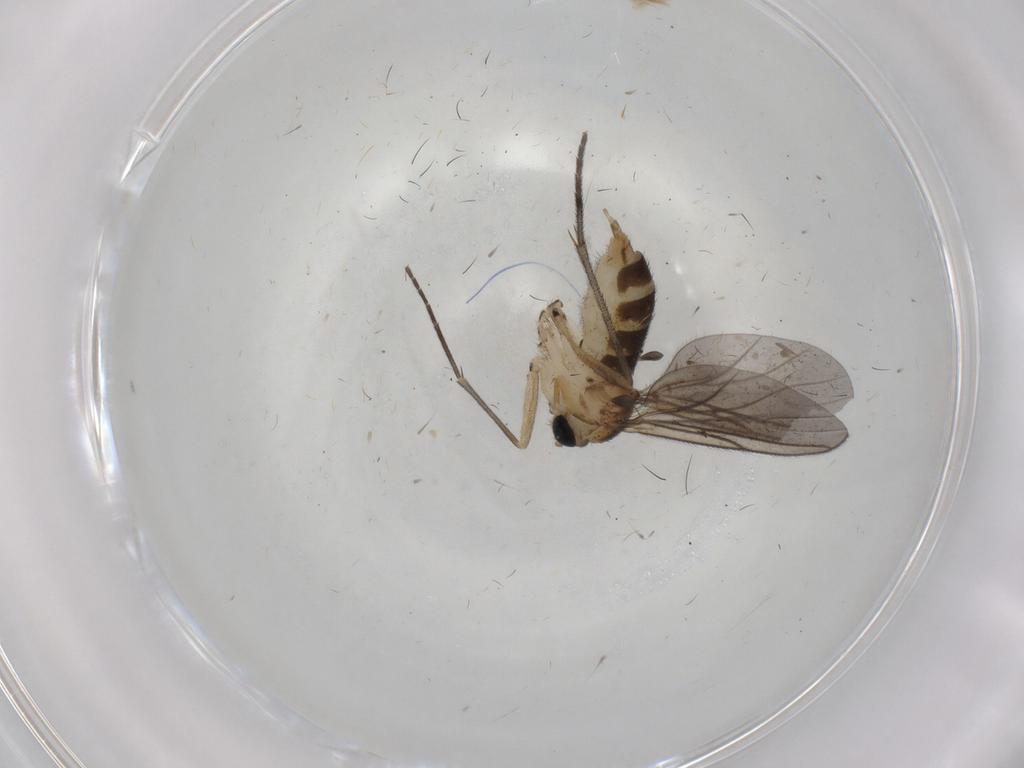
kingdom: Animalia
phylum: Arthropoda
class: Insecta
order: Diptera
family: Sciaridae
